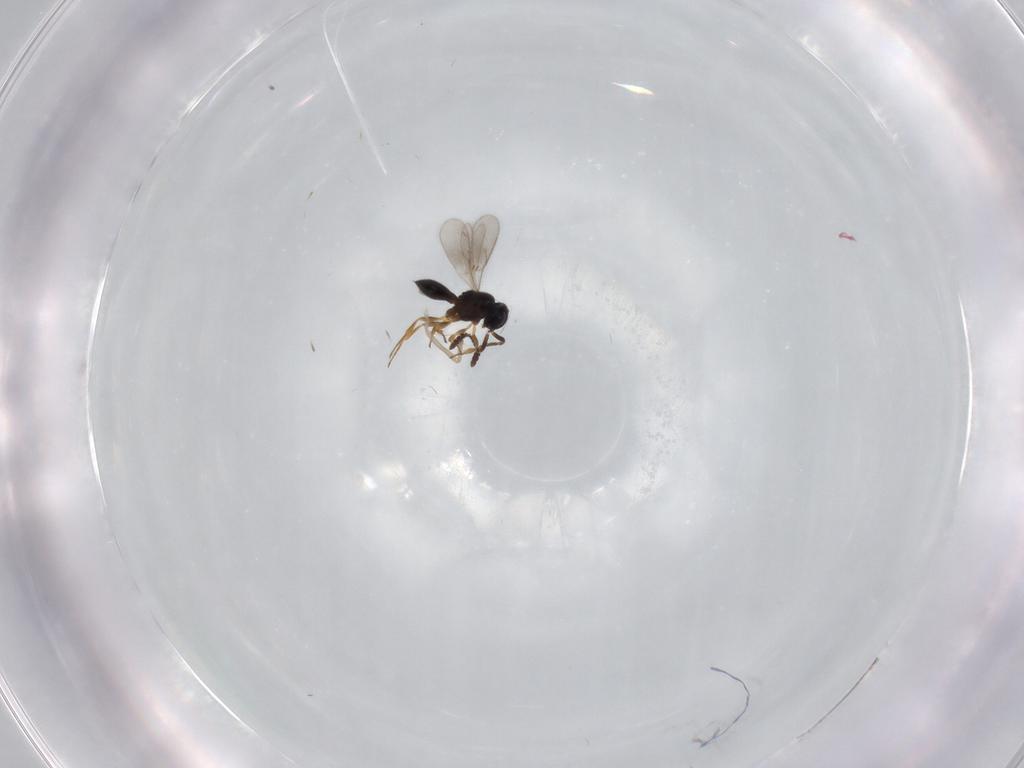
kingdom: Animalia
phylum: Arthropoda
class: Insecta
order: Hymenoptera
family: Scelionidae
